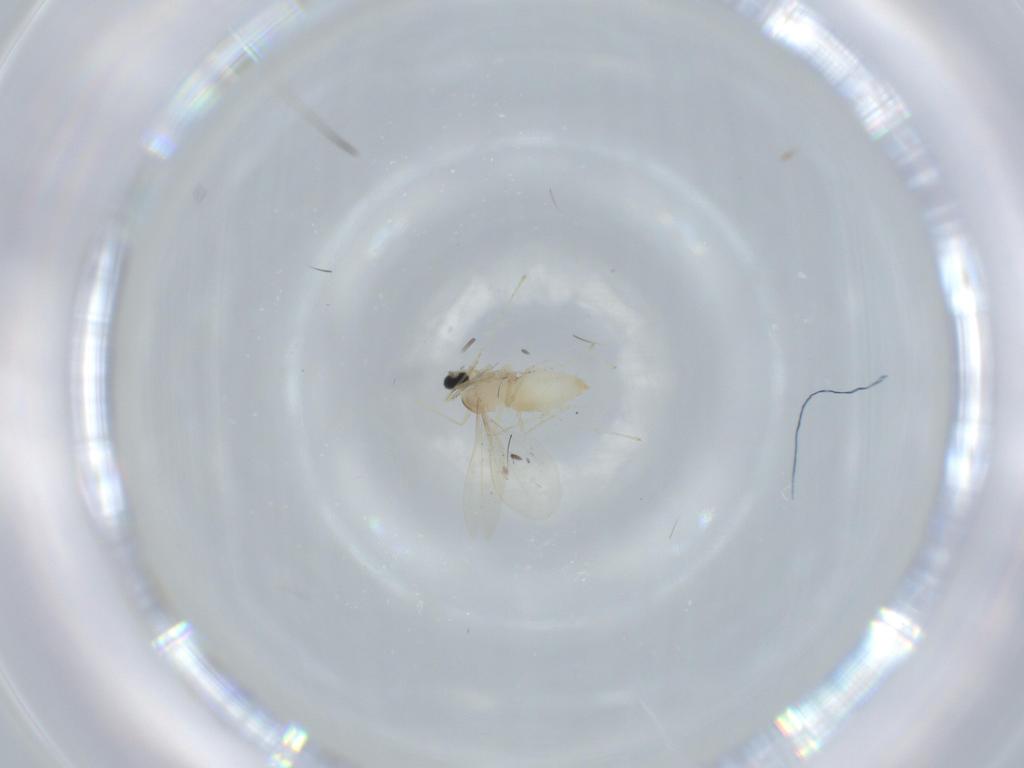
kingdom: Animalia
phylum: Arthropoda
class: Insecta
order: Diptera
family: Milichiidae
